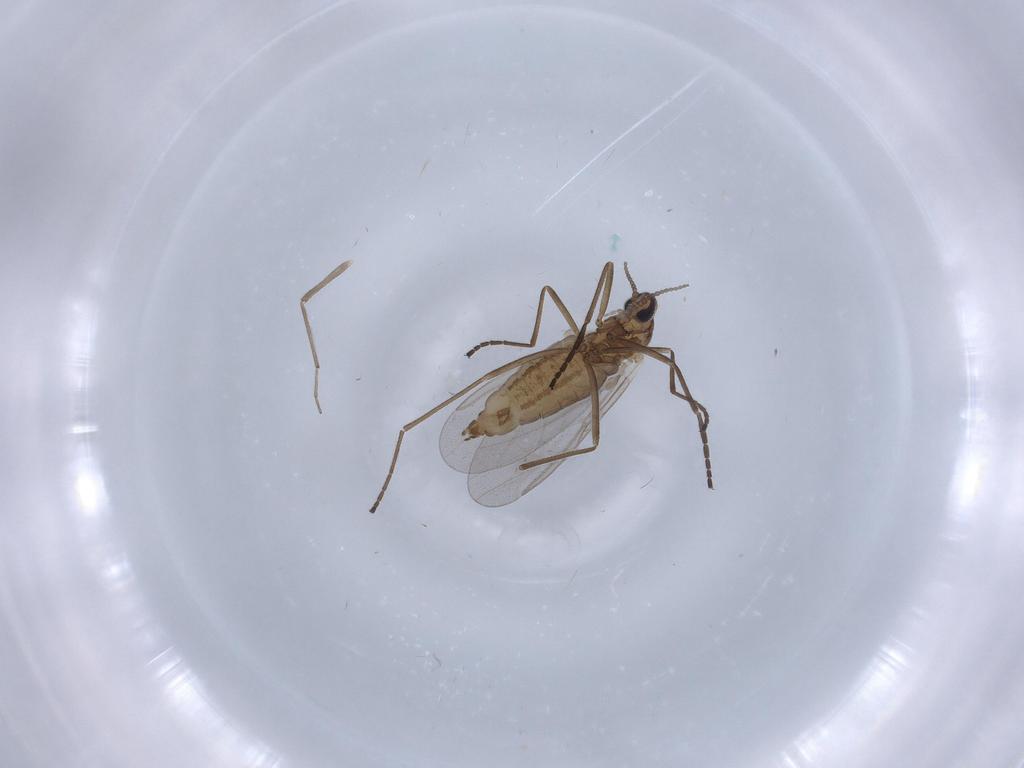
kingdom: Animalia
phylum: Arthropoda
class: Insecta
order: Diptera
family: Cecidomyiidae
